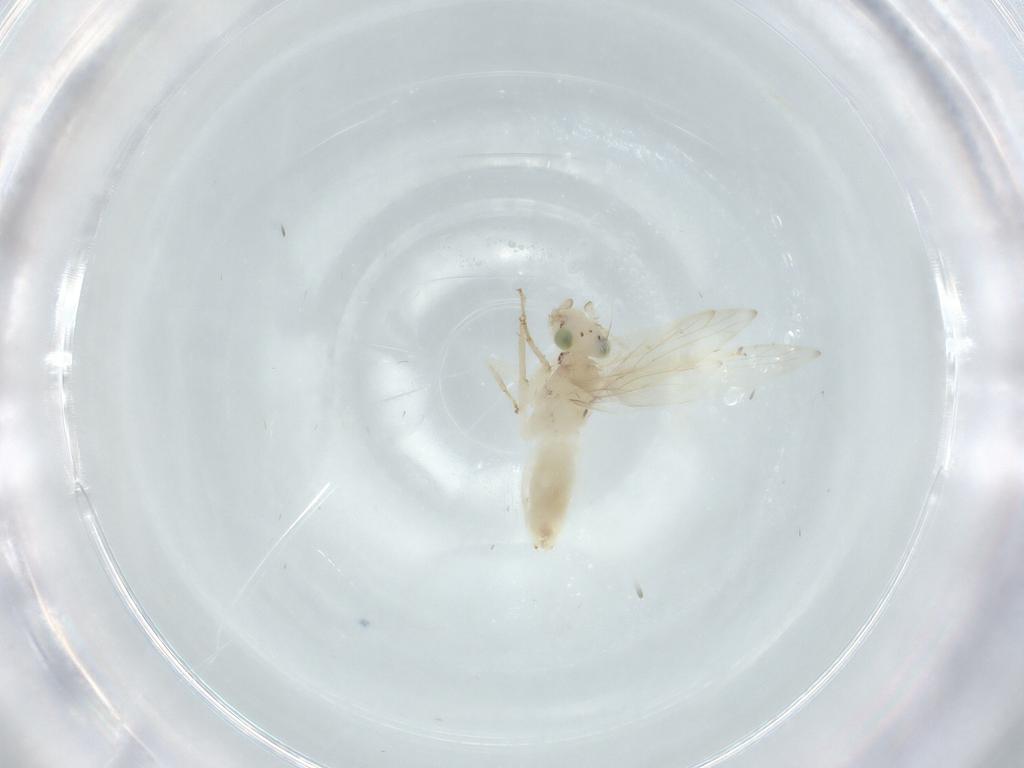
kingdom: Animalia
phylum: Arthropoda
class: Insecta
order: Psocodea
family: Lepidopsocidae
